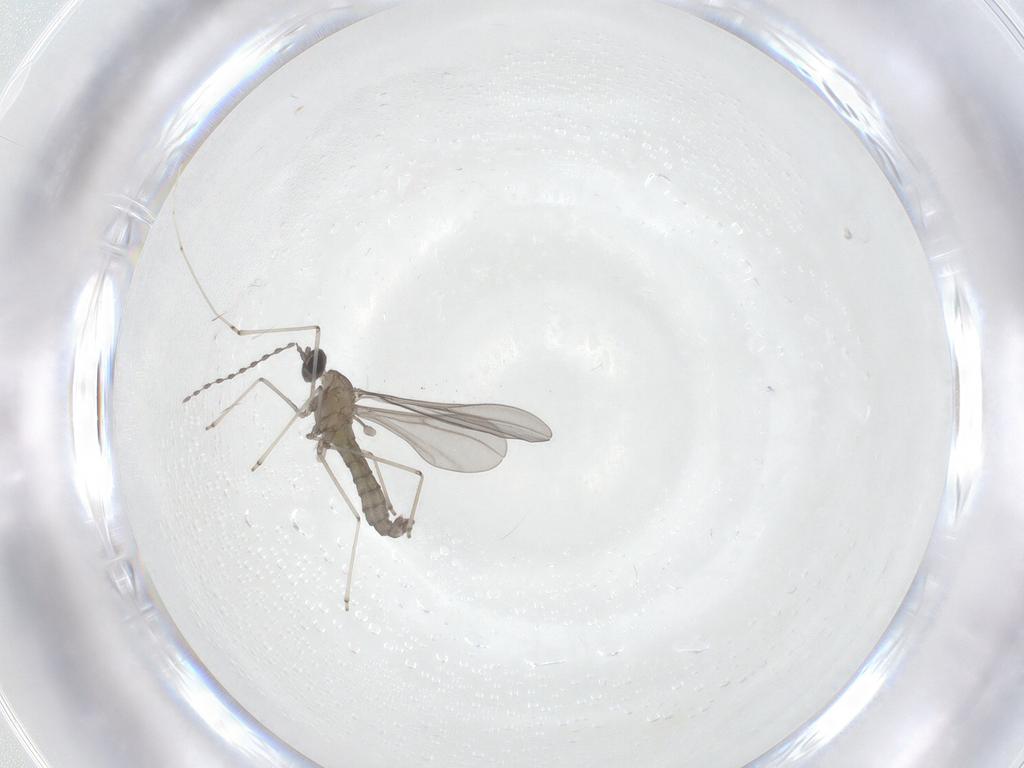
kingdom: Animalia
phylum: Arthropoda
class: Insecta
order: Diptera
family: Cecidomyiidae
